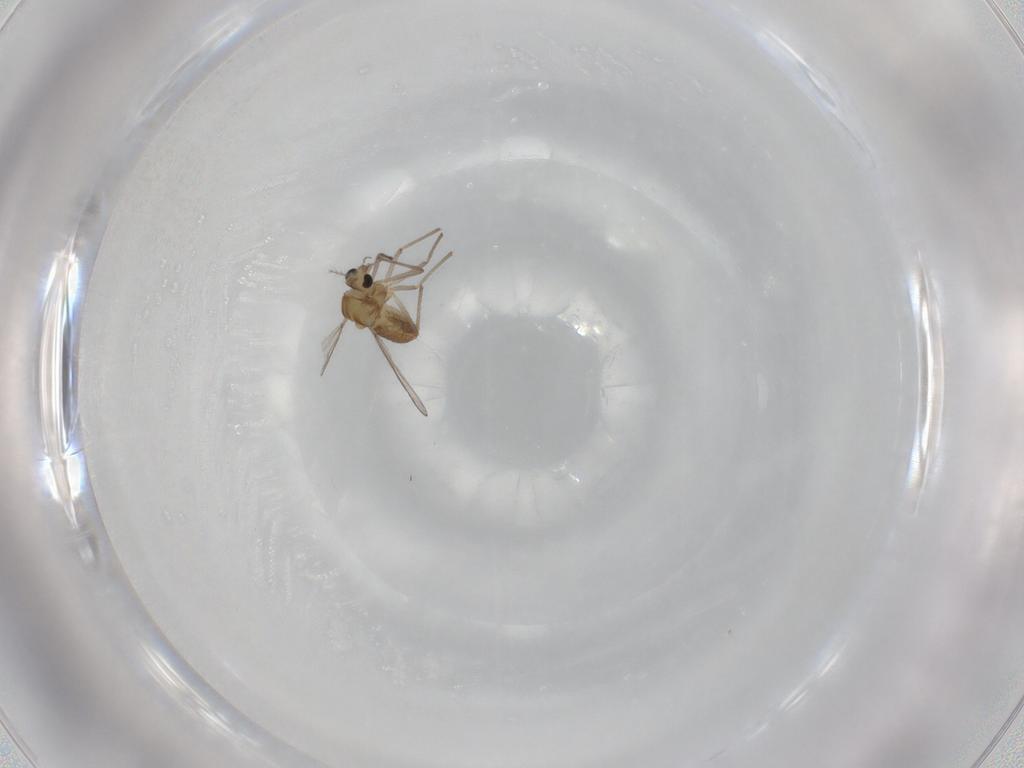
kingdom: Animalia
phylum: Arthropoda
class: Insecta
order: Diptera
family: Chironomidae
